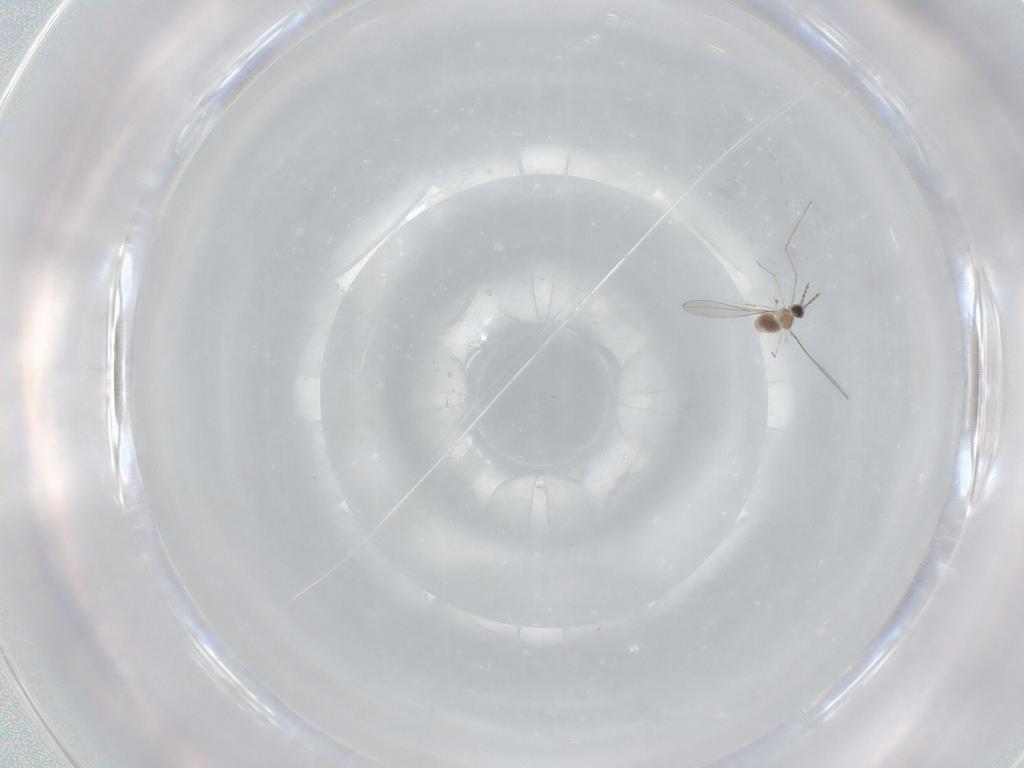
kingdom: Animalia
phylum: Arthropoda
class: Insecta
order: Diptera
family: Cecidomyiidae
